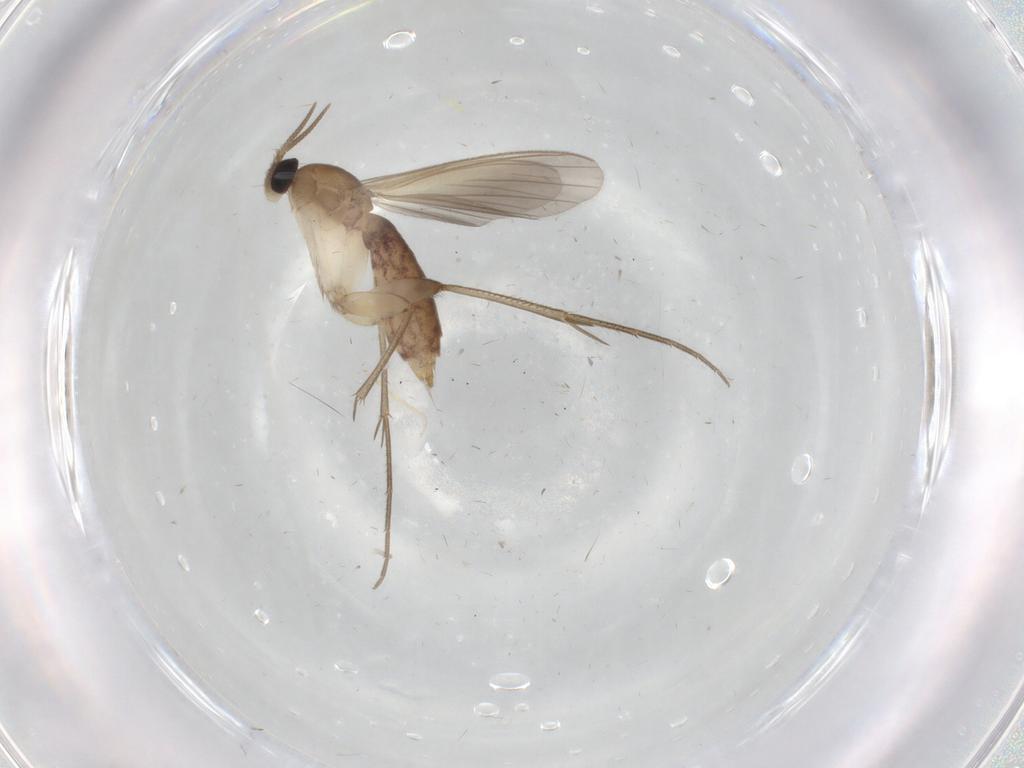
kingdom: Animalia
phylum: Arthropoda
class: Insecta
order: Diptera
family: Mycetophilidae
